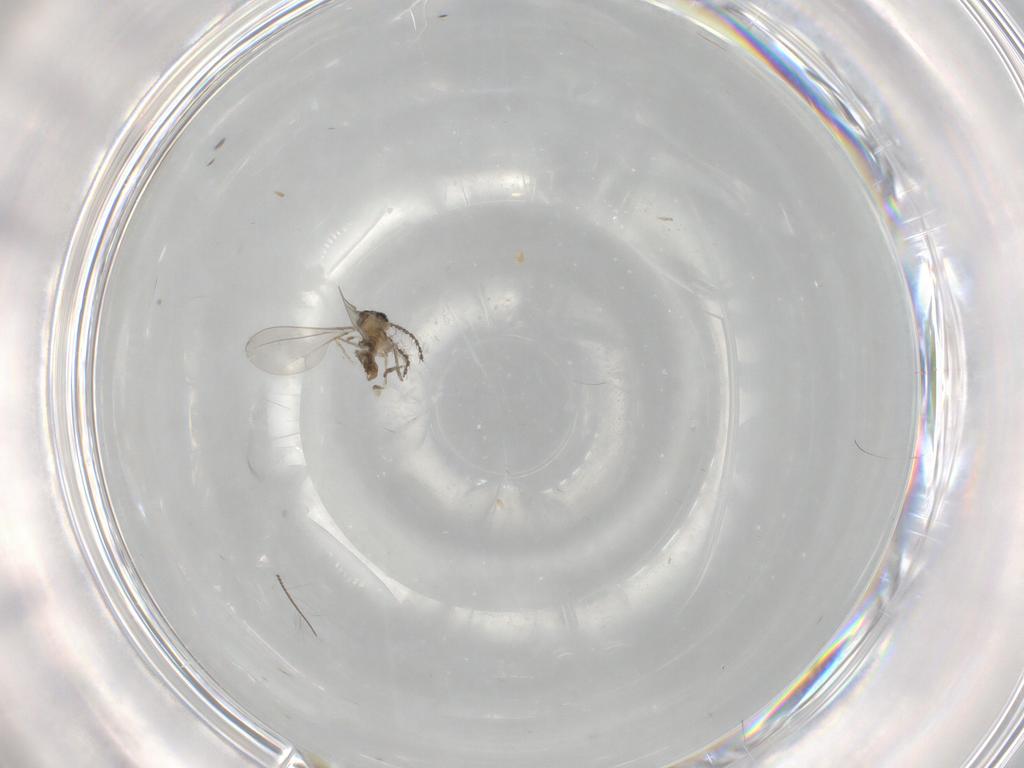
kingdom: Animalia
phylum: Arthropoda
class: Insecta
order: Diptera
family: Cecidomyiidae
